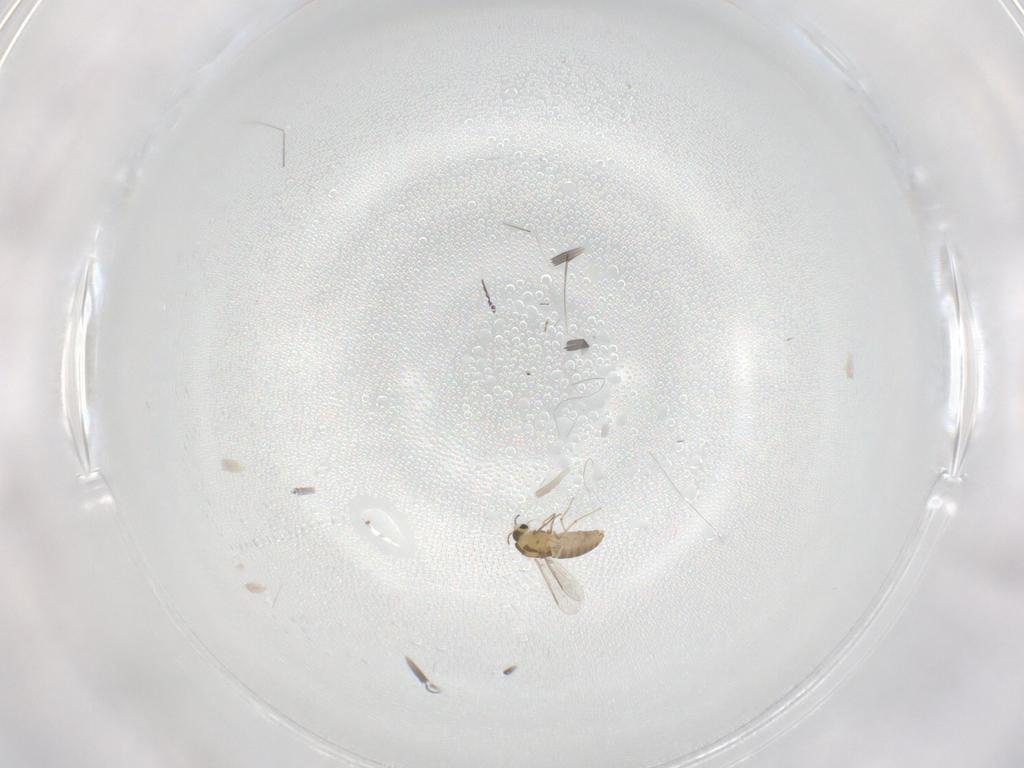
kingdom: Animalia
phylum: Arthropoda
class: Insecta
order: Diptera
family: Chironomidae
